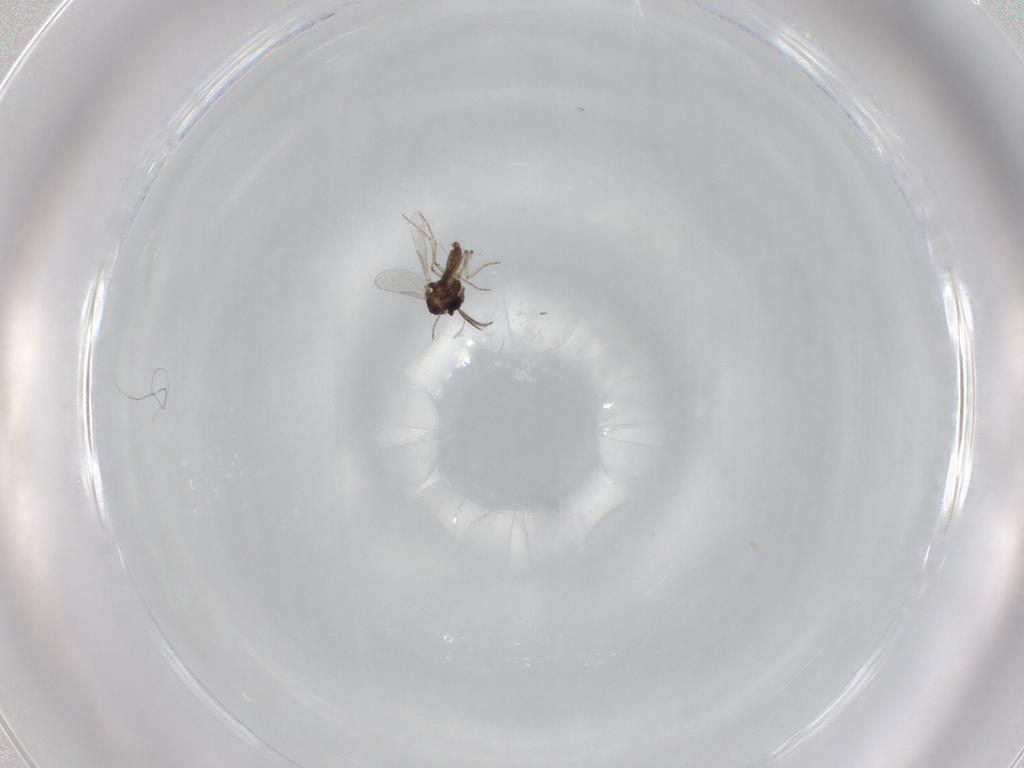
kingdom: Animalia
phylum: Arthropoda
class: Insecta
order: Diptera
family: Ceratopogonidae
